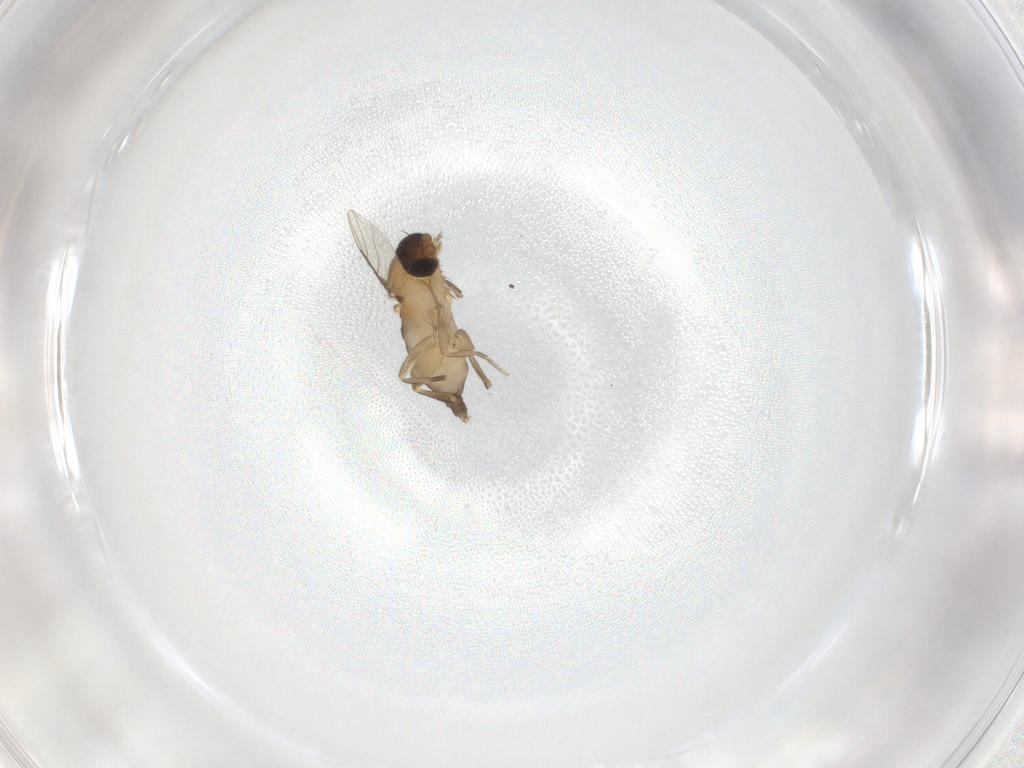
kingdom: Animalia
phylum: Arthropoda
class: Insecta
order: Diptera
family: Phoridae
